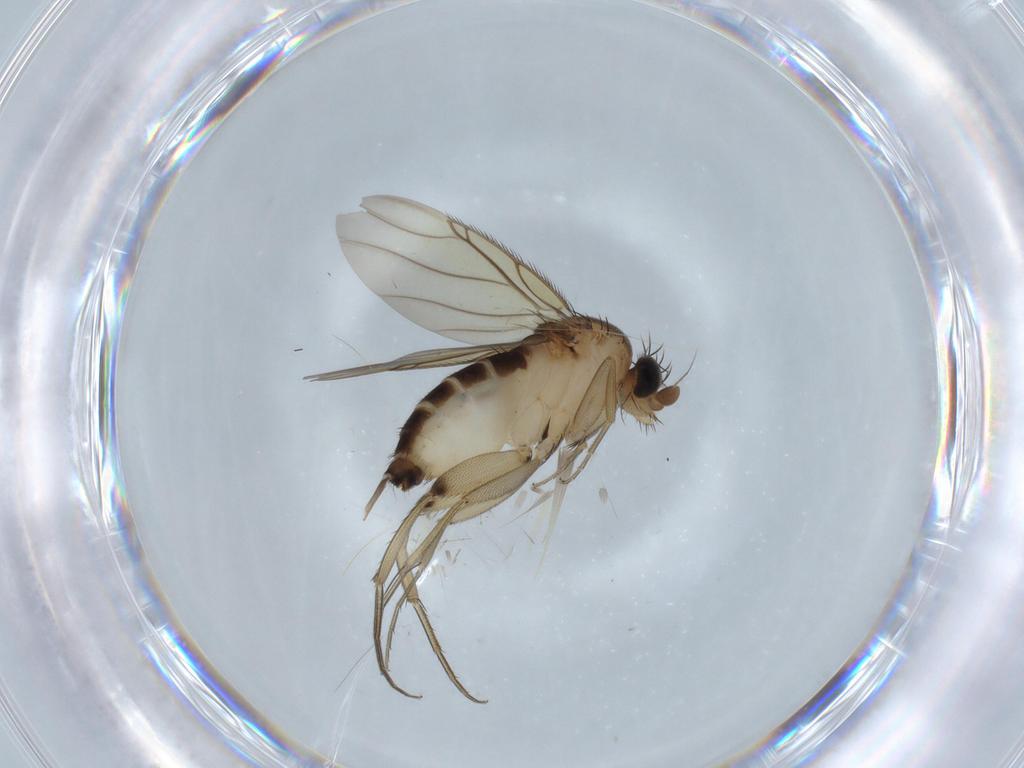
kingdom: Animalia
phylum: Arthropoda
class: Insecta
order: Diptera
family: Phoridae
